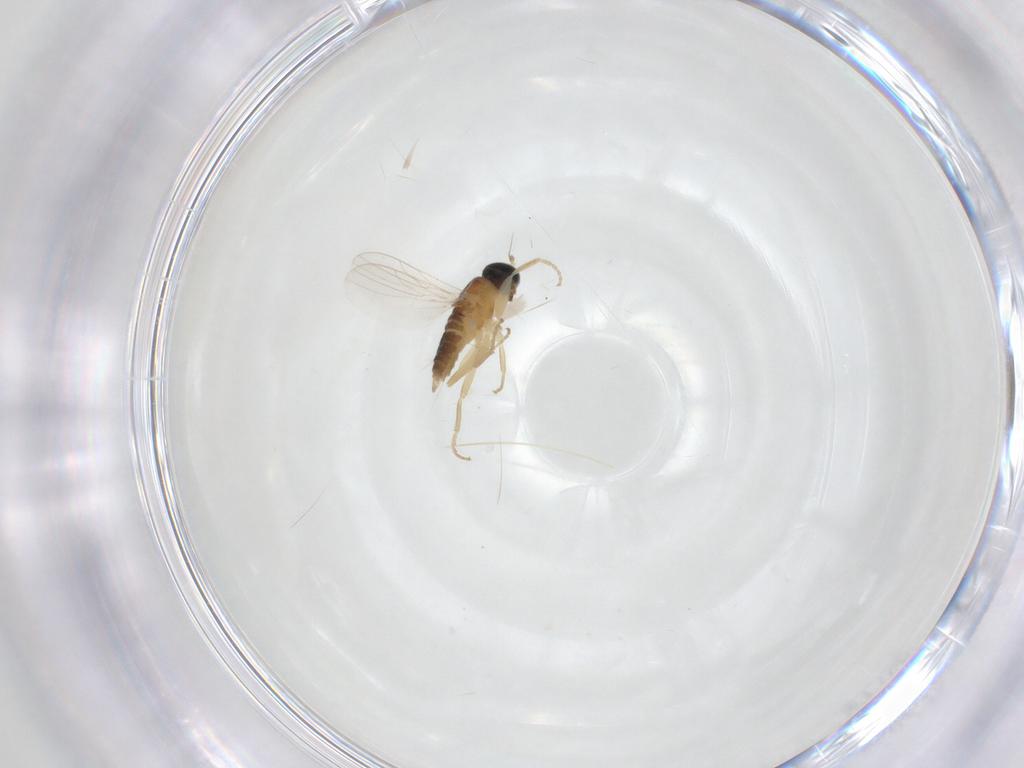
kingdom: Animalia
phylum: Arthropoda
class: Insecta
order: Diptera
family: Hybotidae
